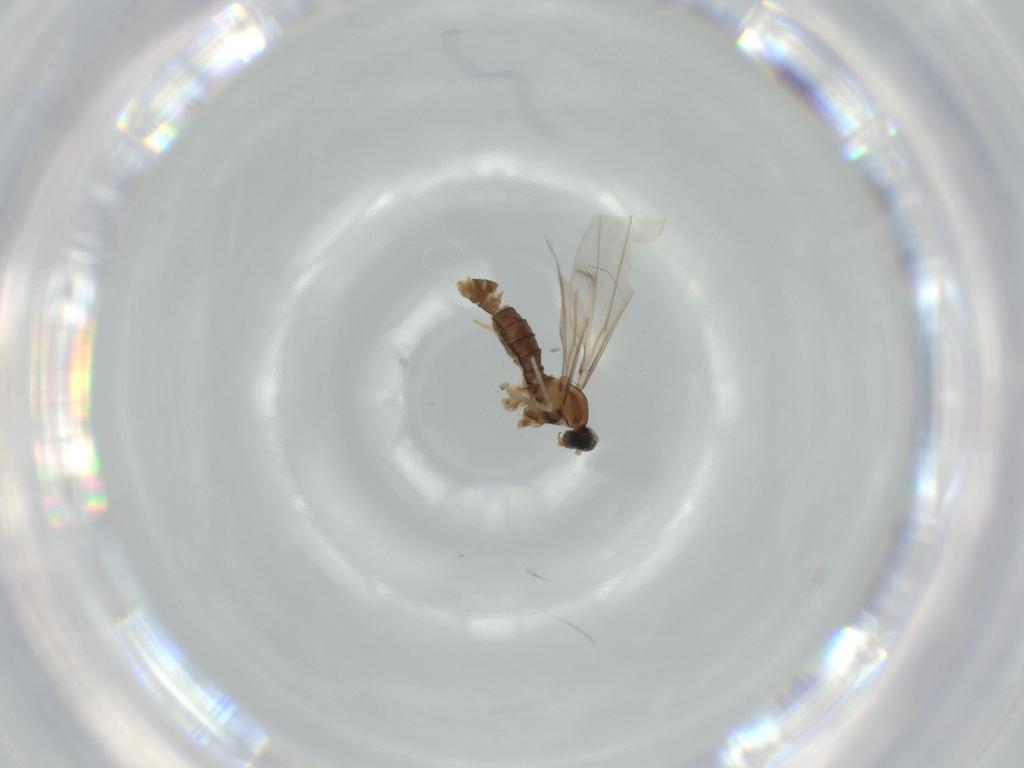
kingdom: Animalia
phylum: Arthropoda
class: Insecta
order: Diptera
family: Cecidomyiidae
